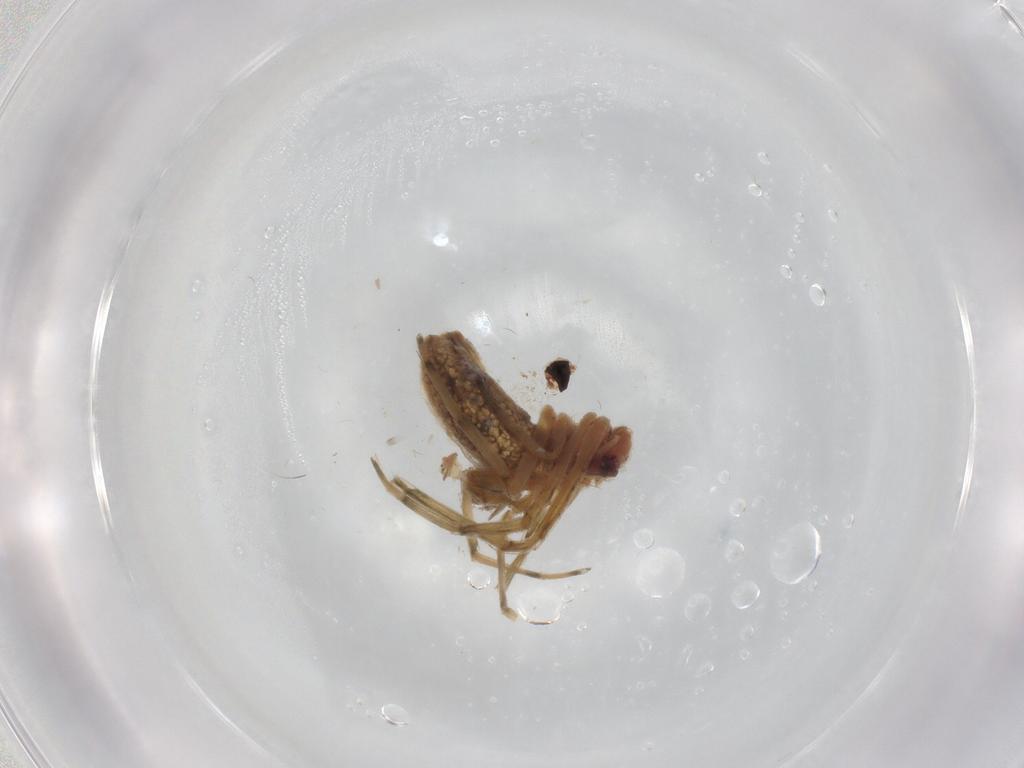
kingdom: Animalia
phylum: Arthropoda
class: Arachnida
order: Araneae
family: Tetragnathidae
